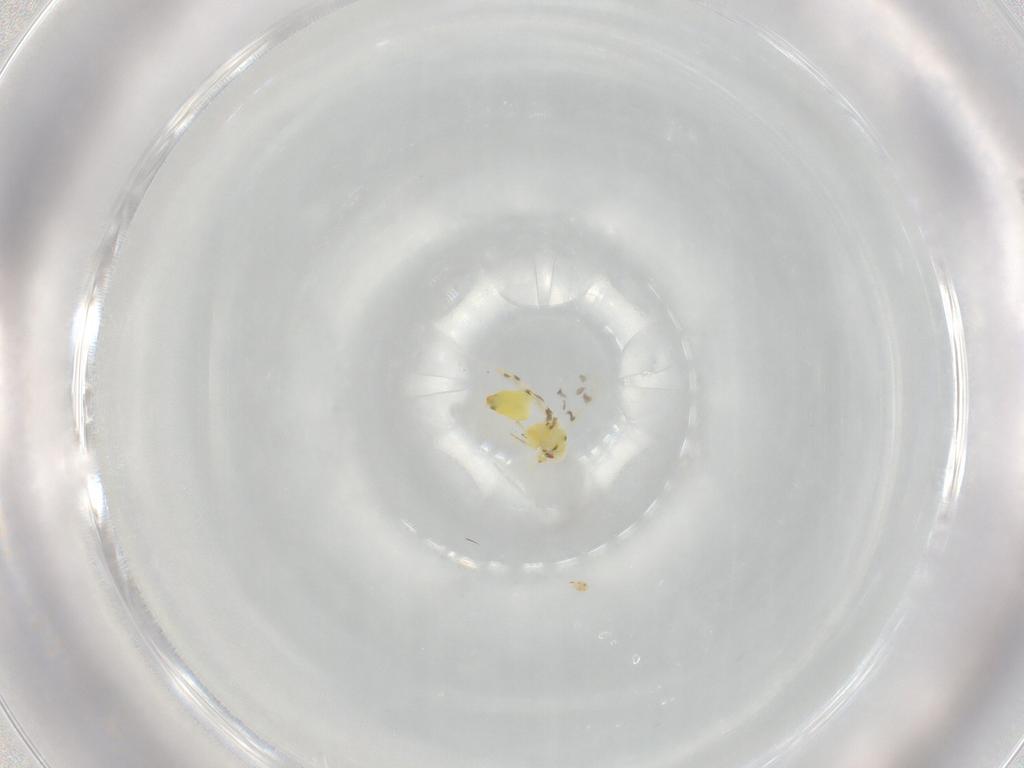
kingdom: Animalia
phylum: Arthropoda
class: Insecta
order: Hemiptera
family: Aleyrodidae
